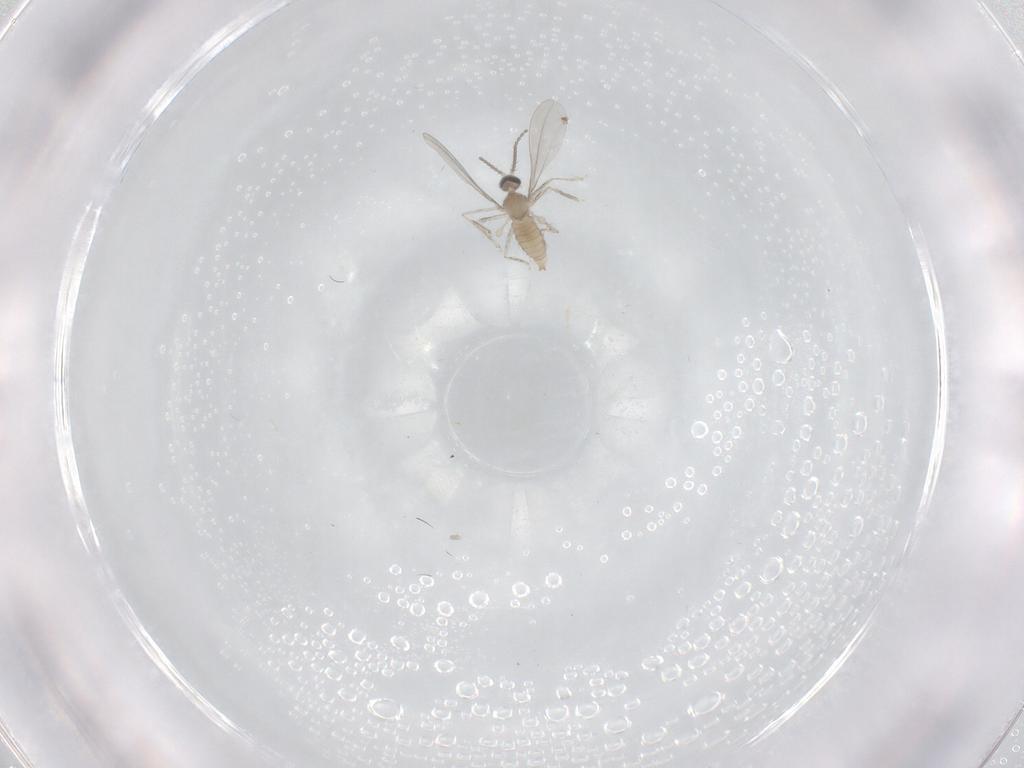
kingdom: Animalia
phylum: Arthropoda
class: Insecta
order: Diptera
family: Cecidomyiidae
